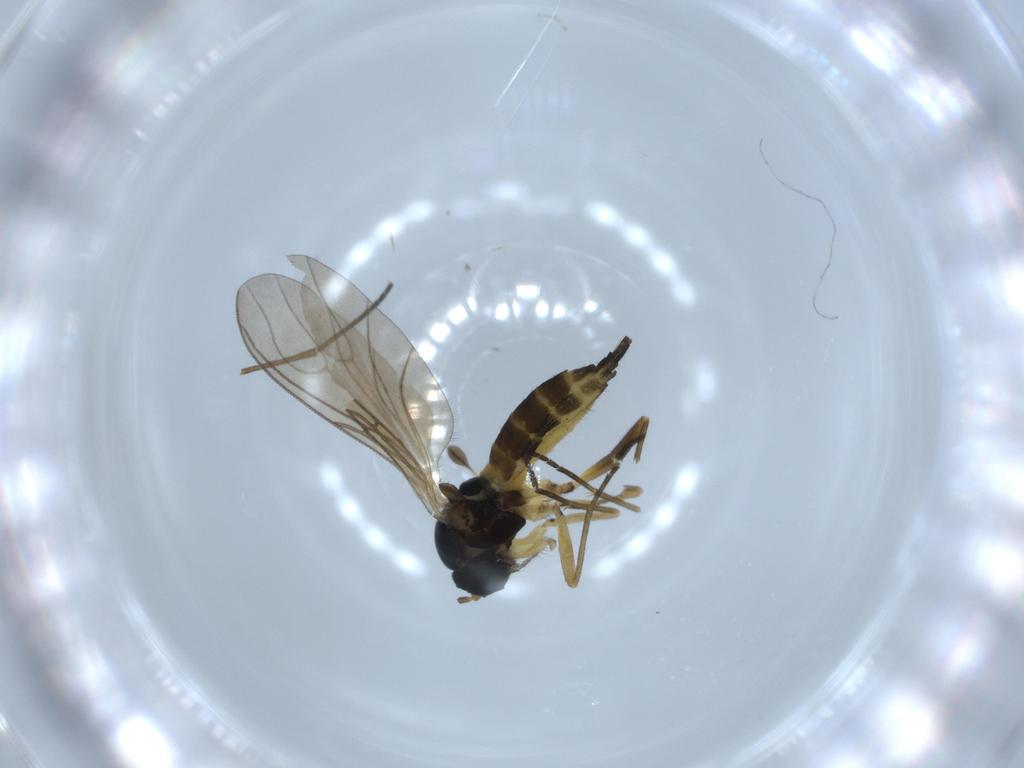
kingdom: Animalia
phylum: Arthropoda
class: Insecta
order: Diptera
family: Sciaridae
